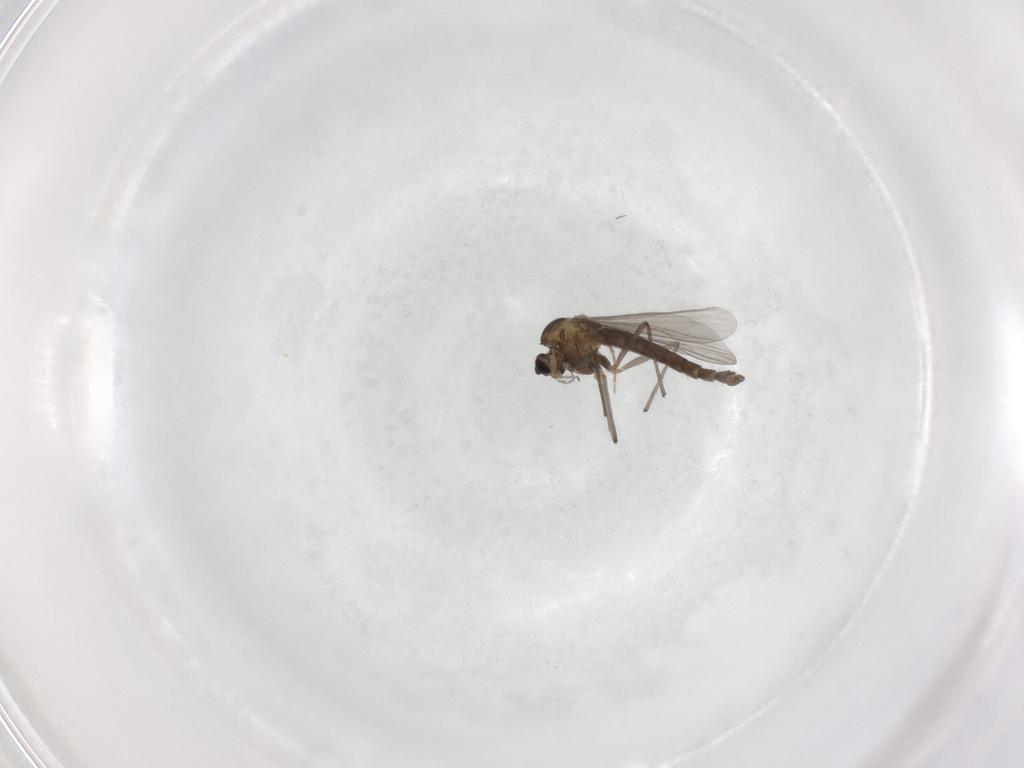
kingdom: Animalia
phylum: Arthropoda
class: Insecta
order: Diptera
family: Chironomidae
